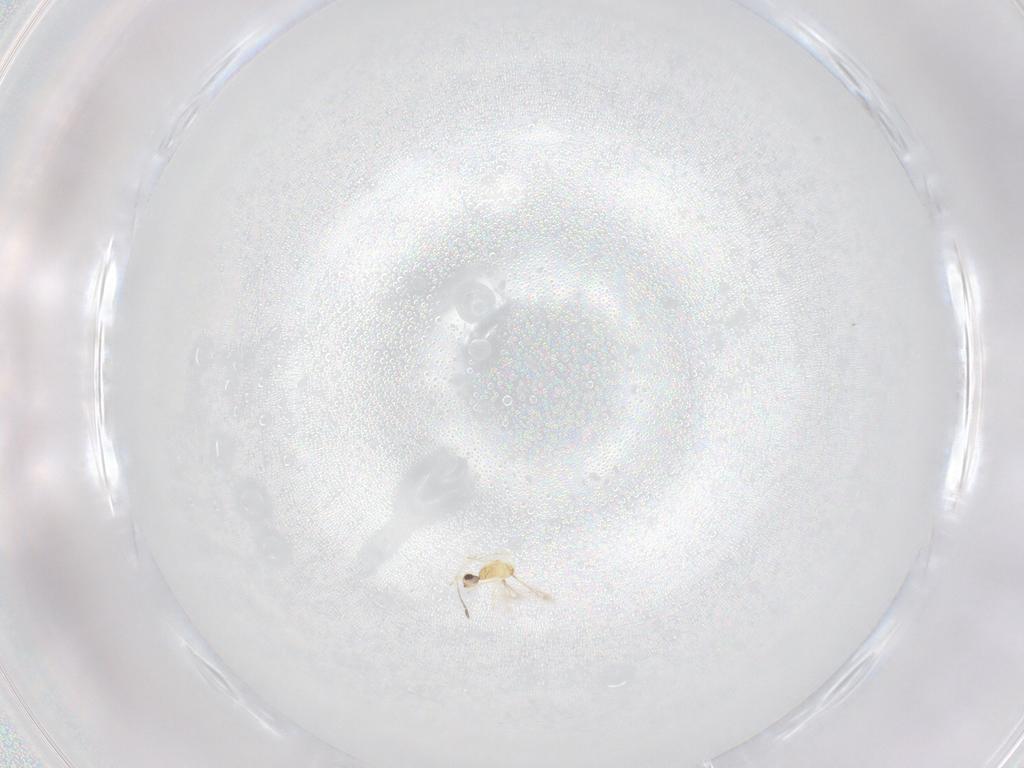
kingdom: Animalia
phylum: Arthropoda
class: Insecta
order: Hymenoptera
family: Mymaridae
